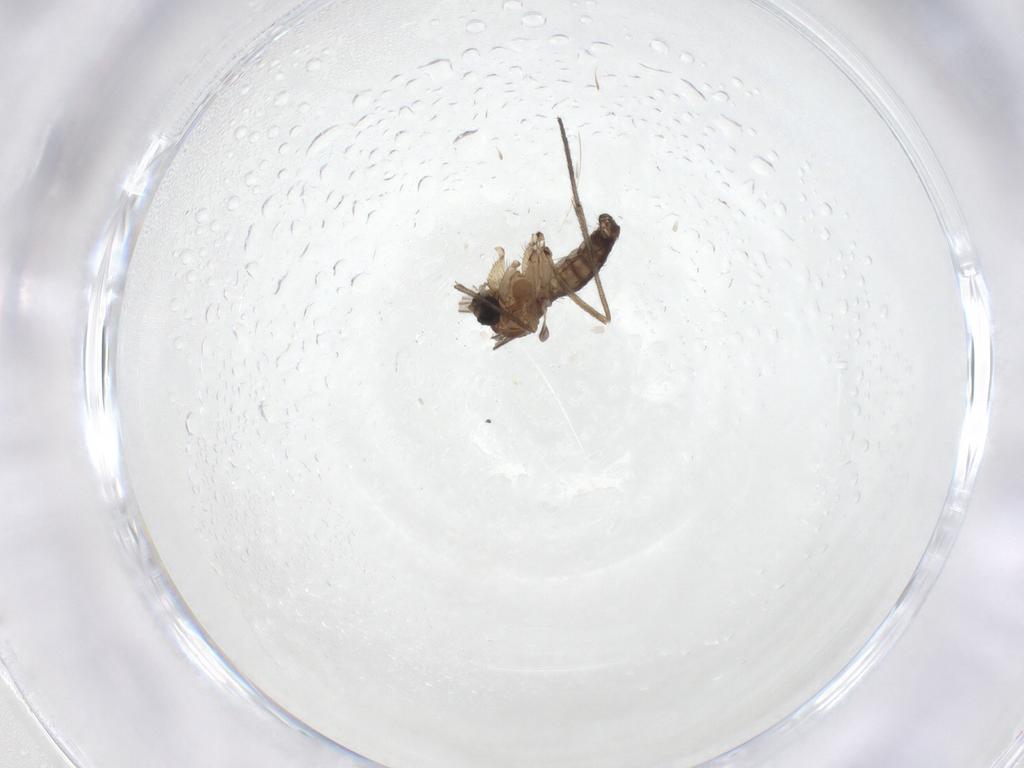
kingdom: Animalia
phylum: Arthropoda
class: Insecta
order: Diptera
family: Sciaridae
